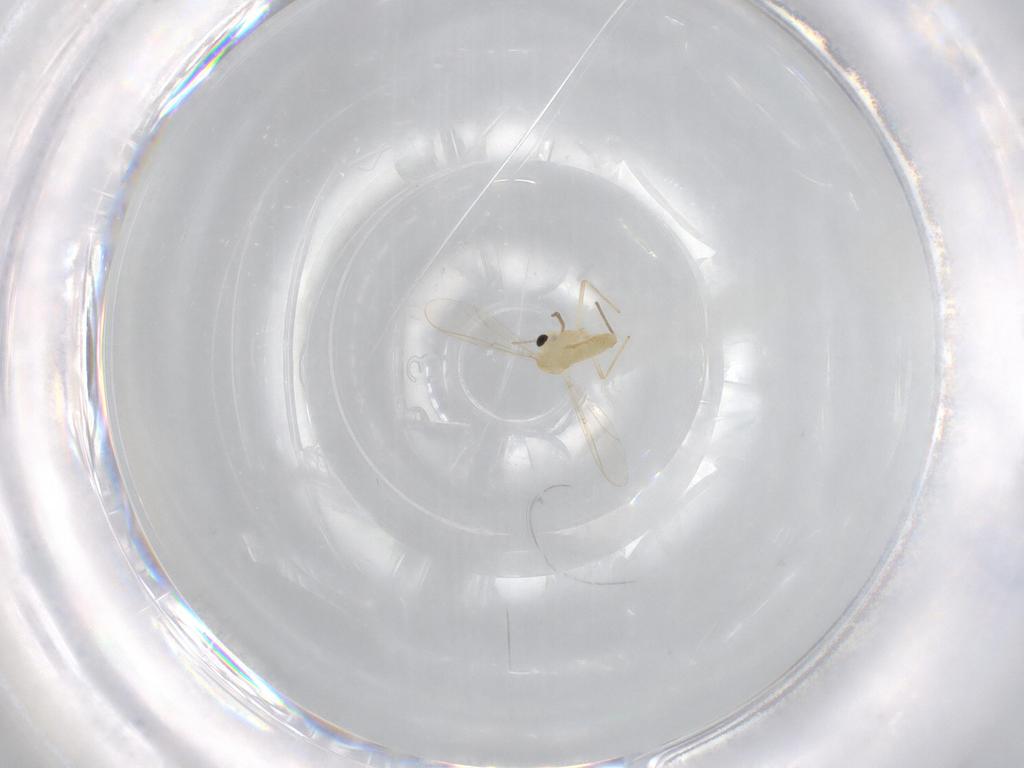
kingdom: Animalia
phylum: Arthropoda
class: Insecta
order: Diptera
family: Chironomidae
